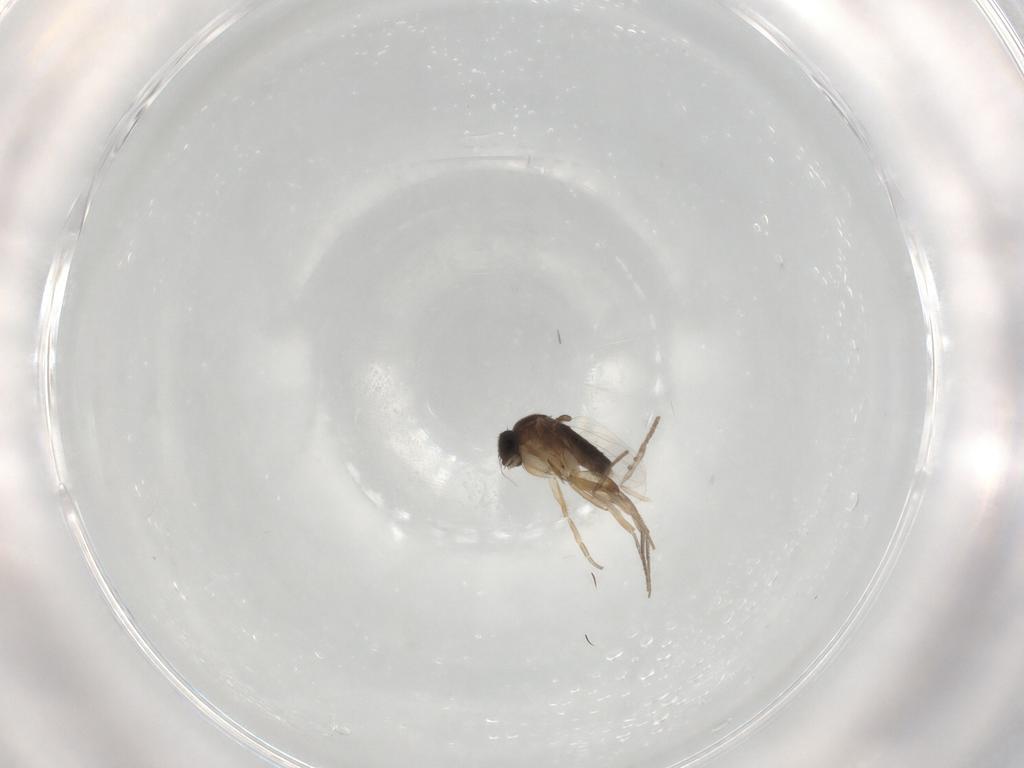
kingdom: Animalia
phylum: Arthropoda
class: Insecta
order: Diptera
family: Phoridae
